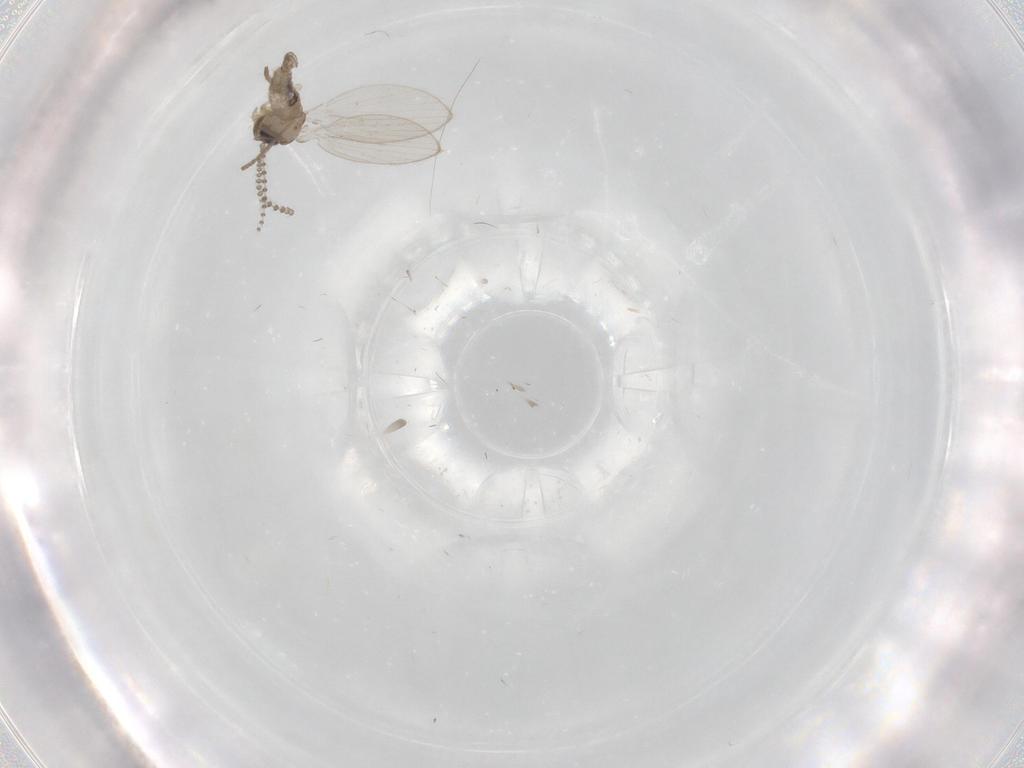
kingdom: Animalia
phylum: Arthropoda
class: Insecta
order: Diptera
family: Psychodidae
